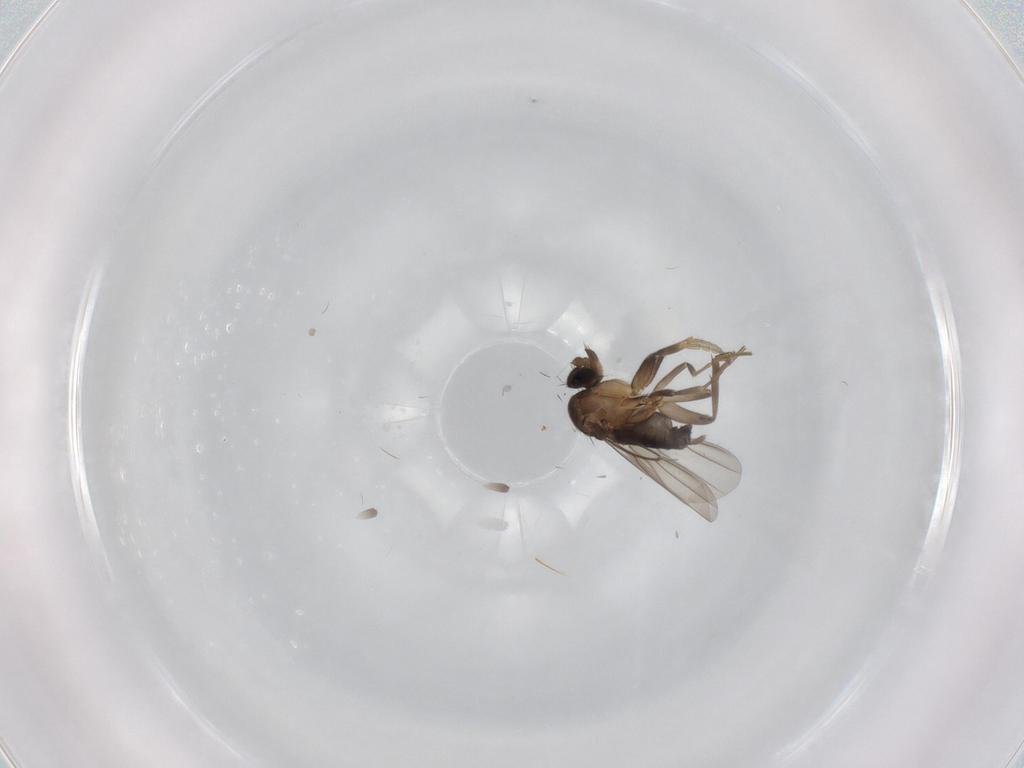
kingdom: Animalia
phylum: Arthropoda
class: Insecta
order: Diptera
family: Phoridae
